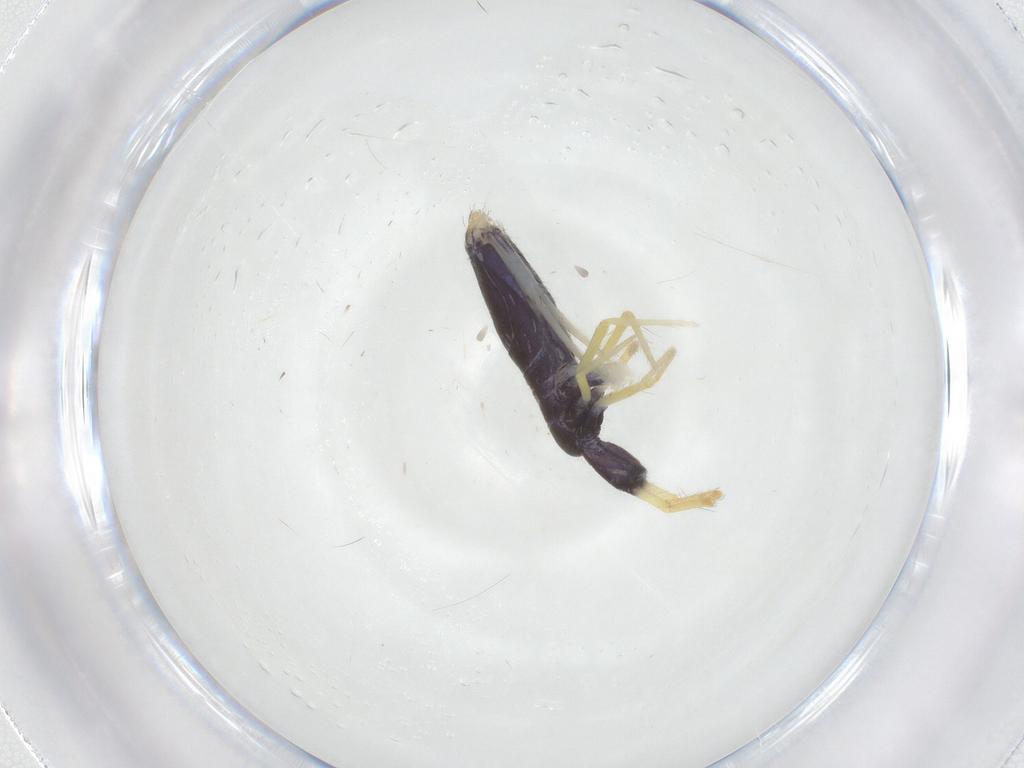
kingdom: Animalia
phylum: Arthropoda
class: Collembola
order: Entomobryomorpha
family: Entomobryidae
